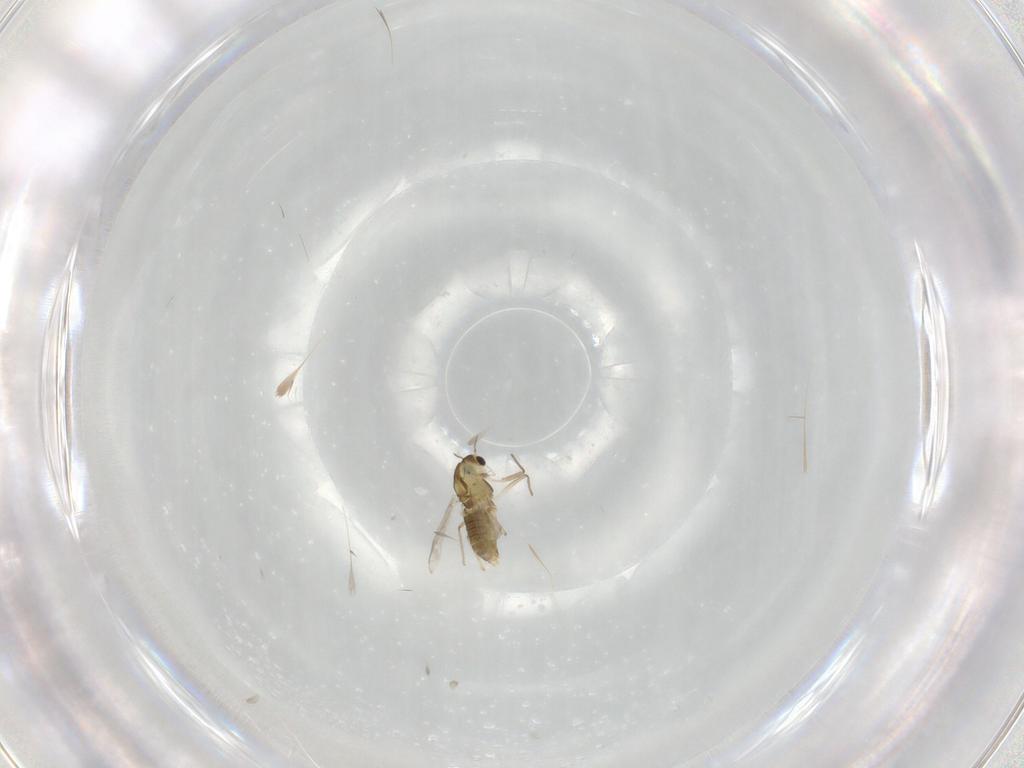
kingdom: Animalia
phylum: Arthropoda
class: Insecta
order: Diptera
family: Chironomidae
